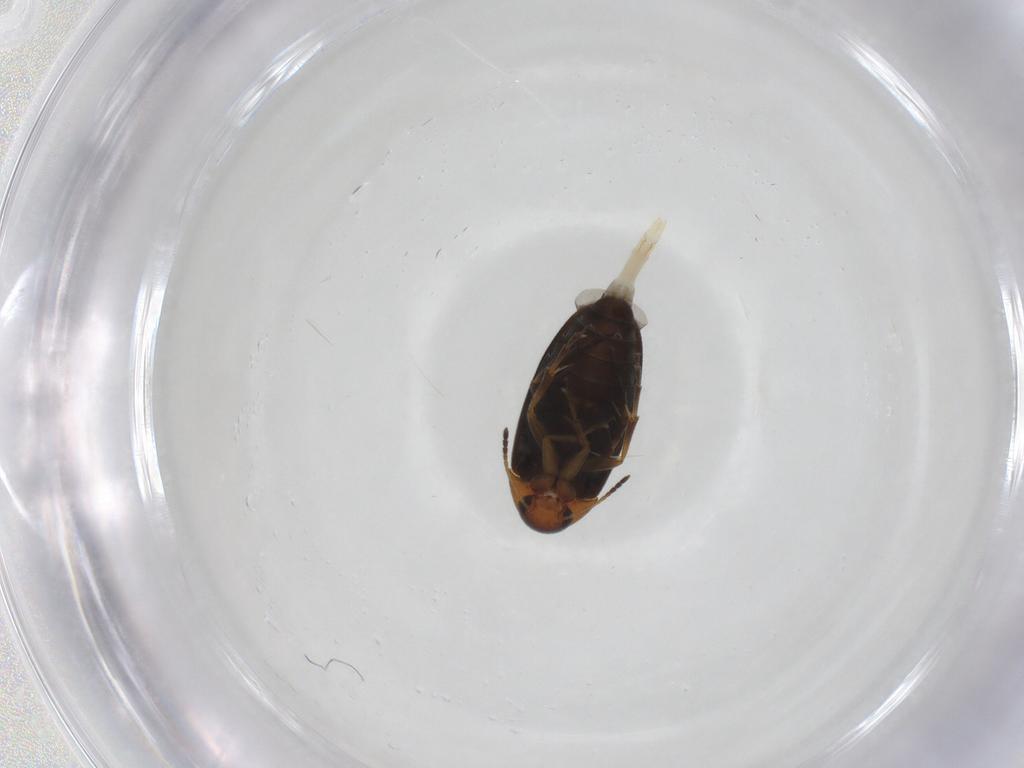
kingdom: Animalia
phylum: Arthropoda
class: Insecta
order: Coleoptera
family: Scraptiidae
